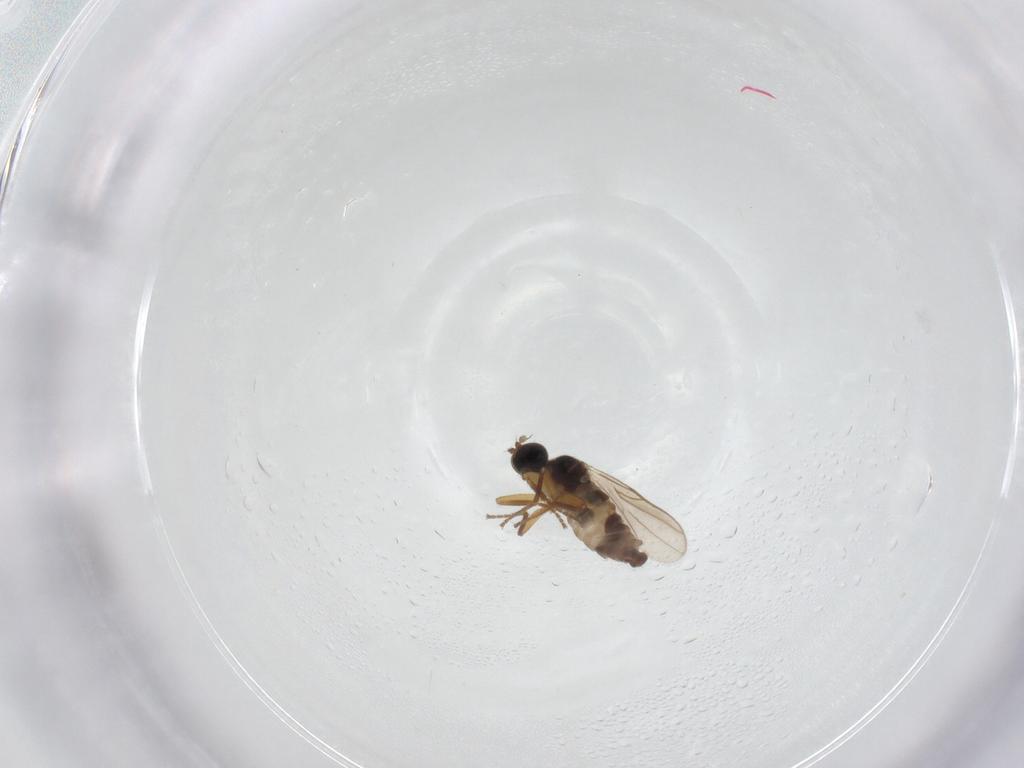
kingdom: Animalia
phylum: Arthropoda
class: Insecta
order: Diptera
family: Hybotidae
